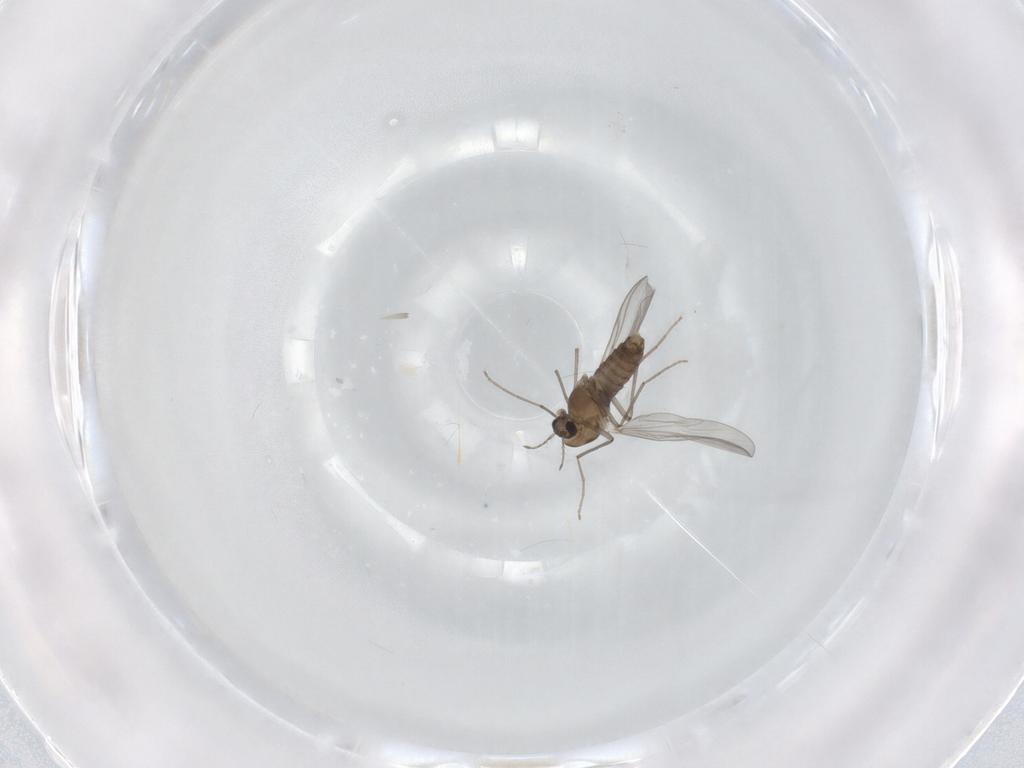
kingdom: Animalia
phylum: Arthropoda
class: Insecta
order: Diptera
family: Chironomidae
